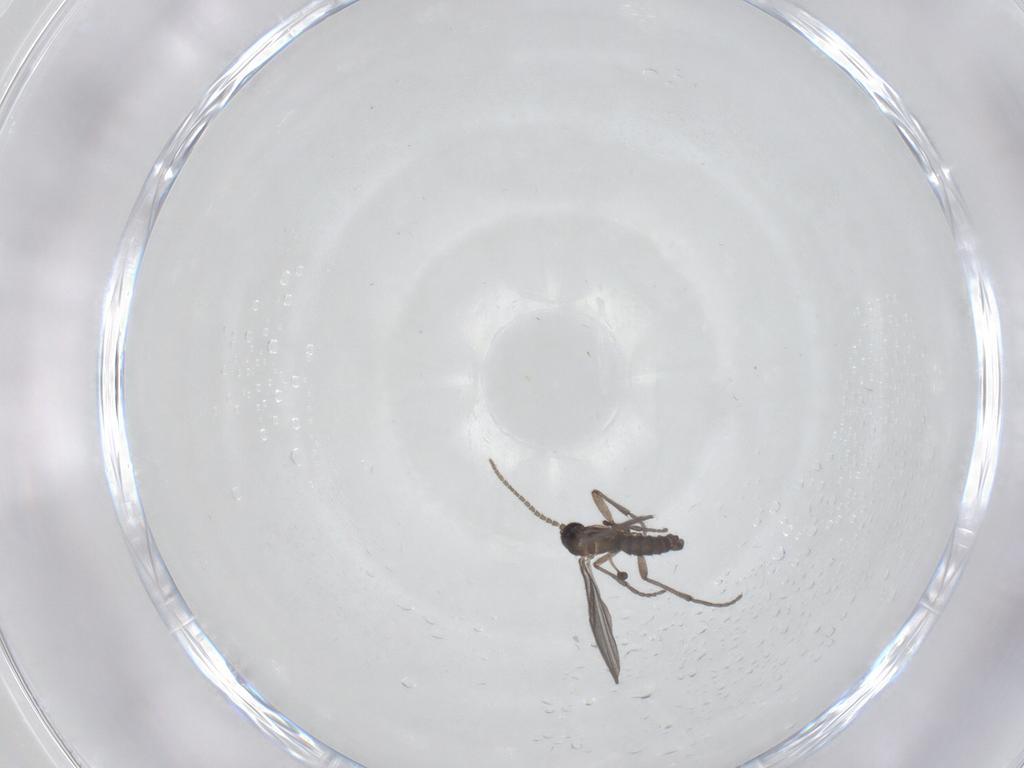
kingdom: Animalia
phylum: Arthropoda
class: Insecta
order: Diptera
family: Sciaridae
